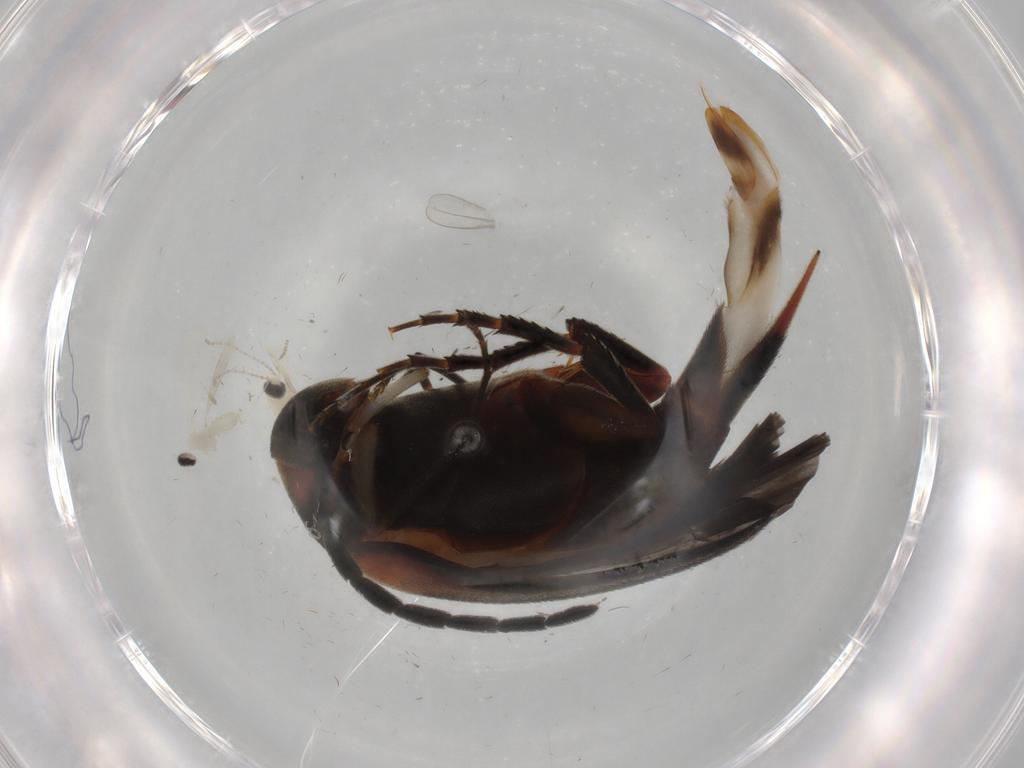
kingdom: Animalia
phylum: Arthropoda
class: Insecta
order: Coleoptera
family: Mordellidae
